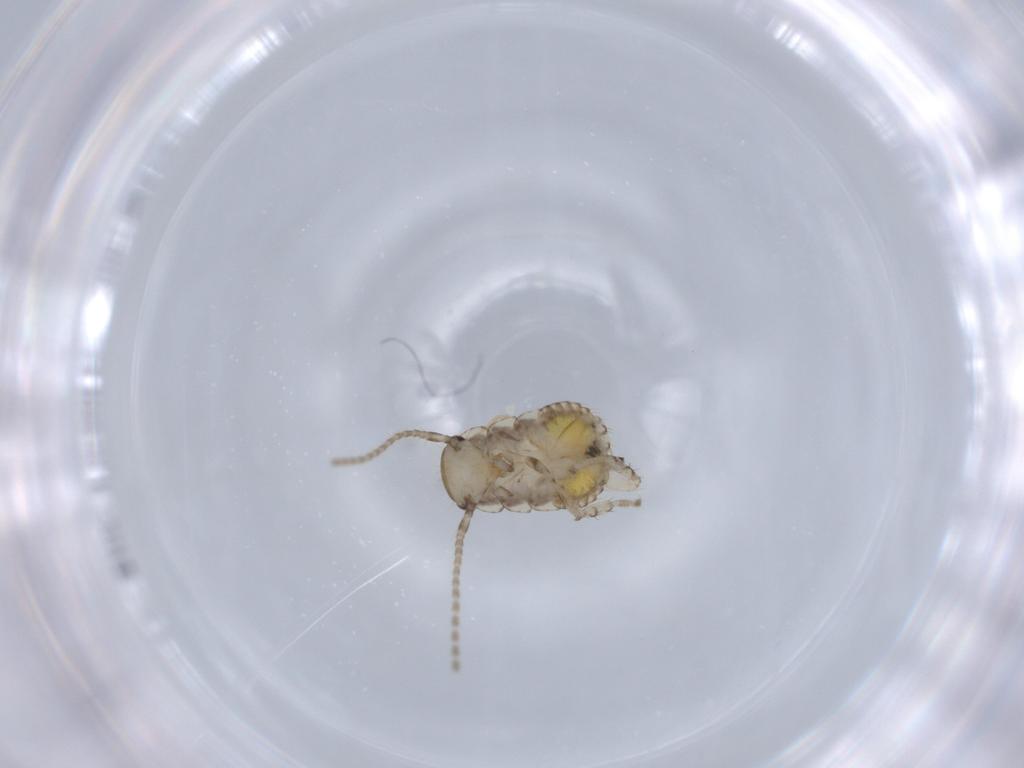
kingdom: Animalia
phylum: Arthropoda
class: Insecta
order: Blattodea
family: Ectobiidae
